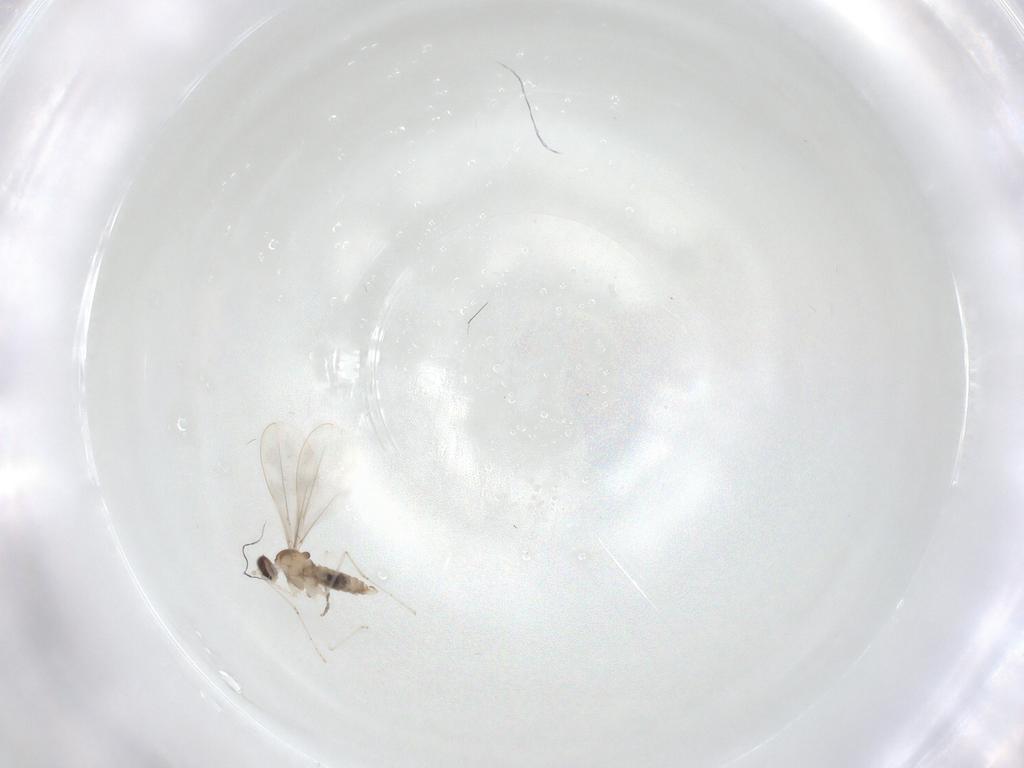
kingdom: Animalia
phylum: Arthropoda
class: Insecta
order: Diptera
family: Cecidomyiidae
